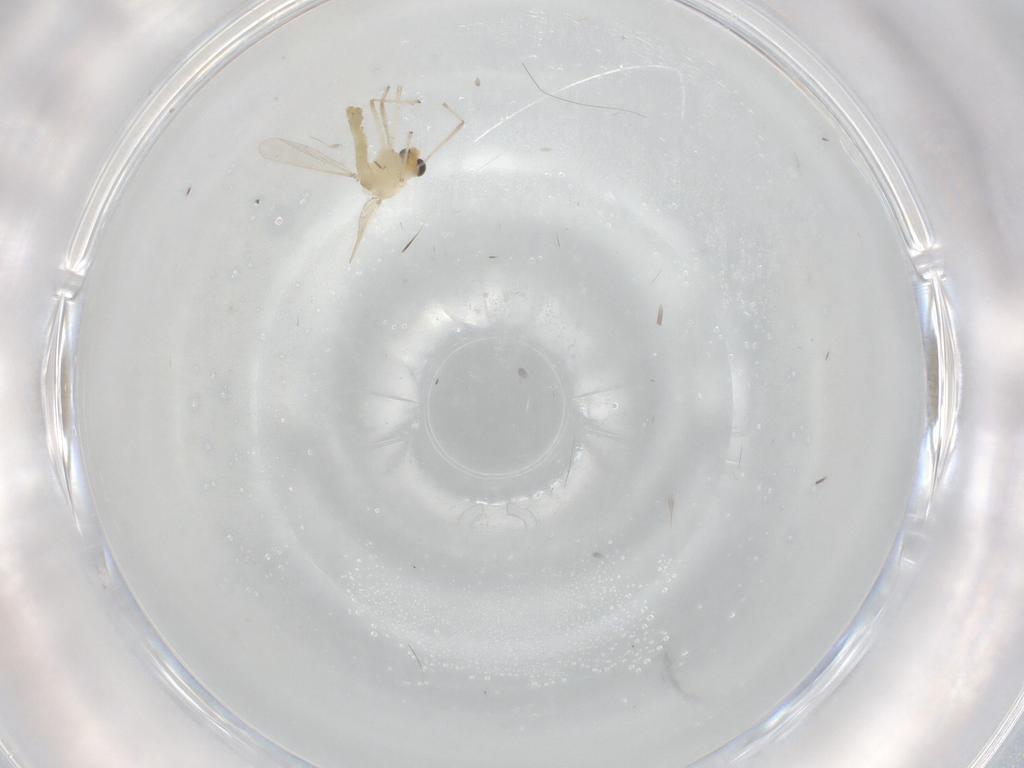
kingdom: Animalia
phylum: Arthropoda
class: Insecta
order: Diptera
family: Chironomidae
